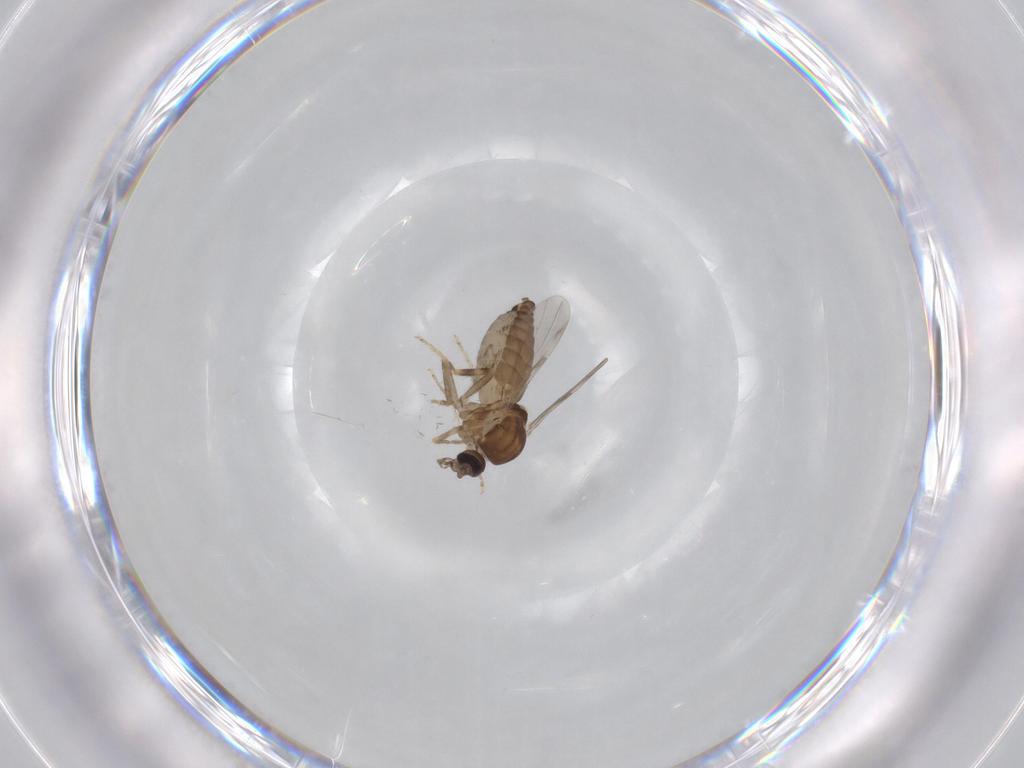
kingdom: Animalia
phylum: Arthropoda
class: Insecta
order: Diptera
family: Ceratopogonidae
